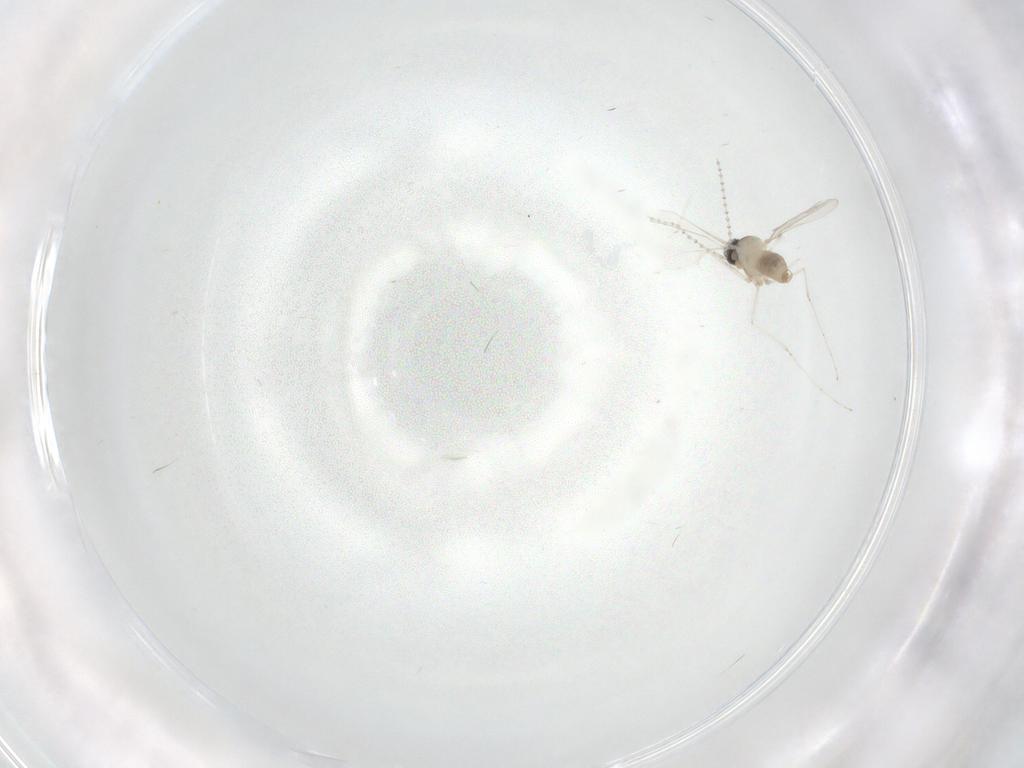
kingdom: Animalia
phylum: Arthropoda
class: Insecta
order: Diptera
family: Cecidomyiidae
